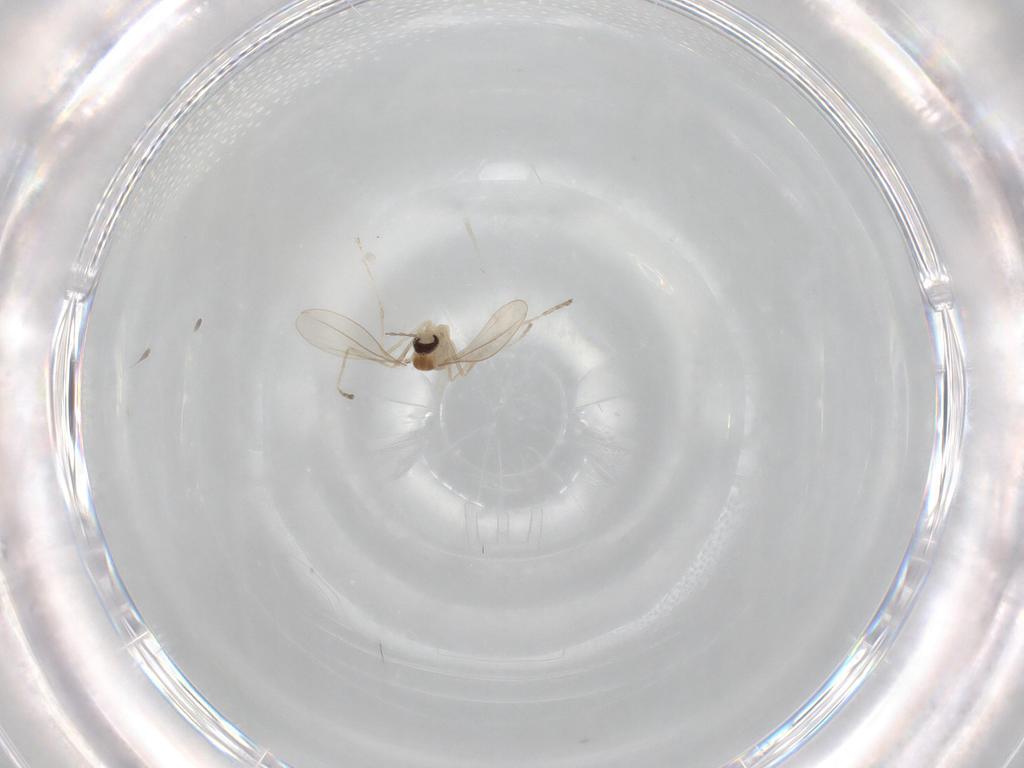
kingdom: Animalia
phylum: Arthropoda
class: Insecta
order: Diptera
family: Cecidomyiidae
